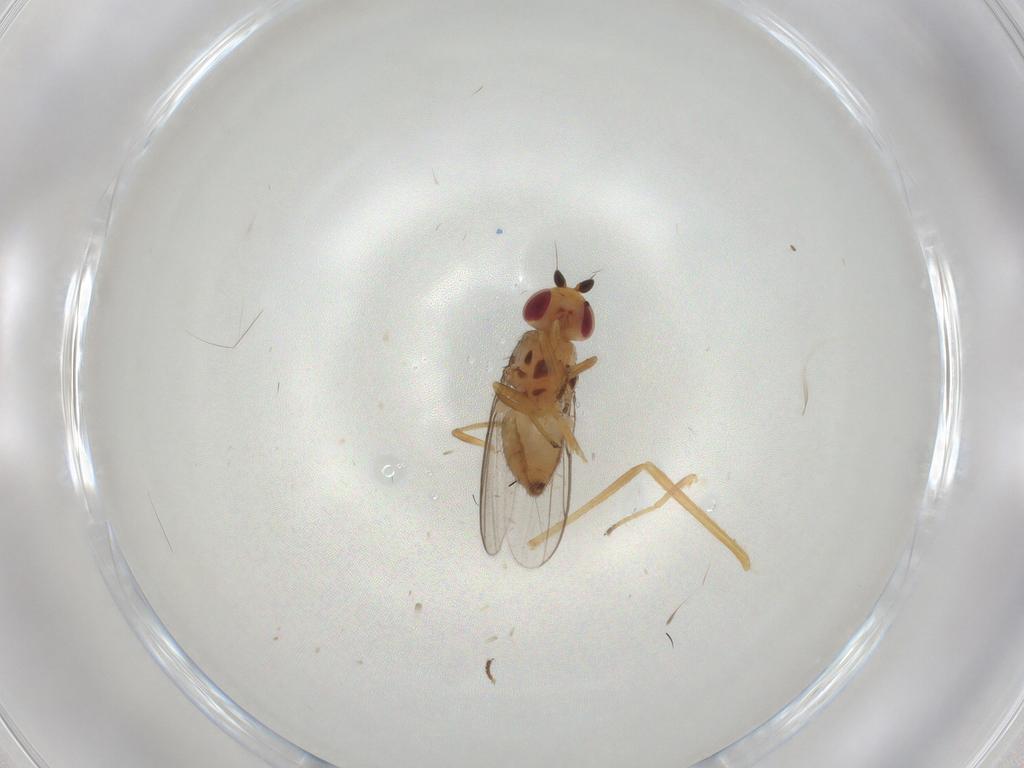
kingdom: Animalia
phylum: Arthropoda
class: Insecta
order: Diptera
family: Chloropidae
